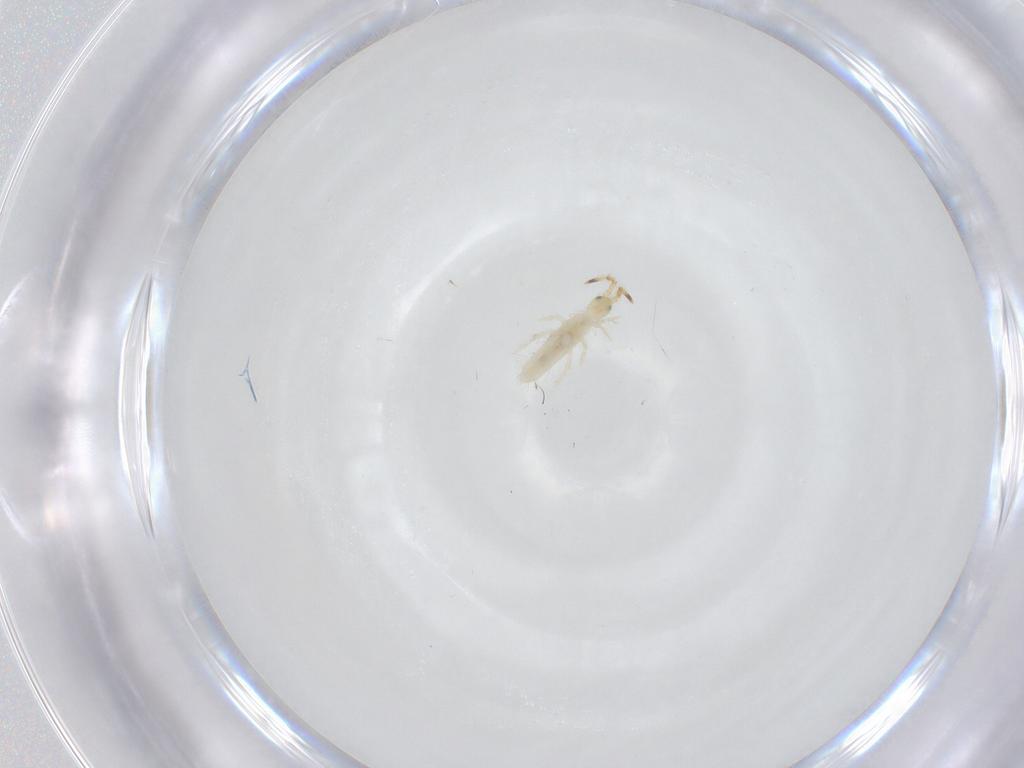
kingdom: Animalia
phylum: Arthropoda
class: Collembola
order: Entomobryomorpha
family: Entomobryidae
